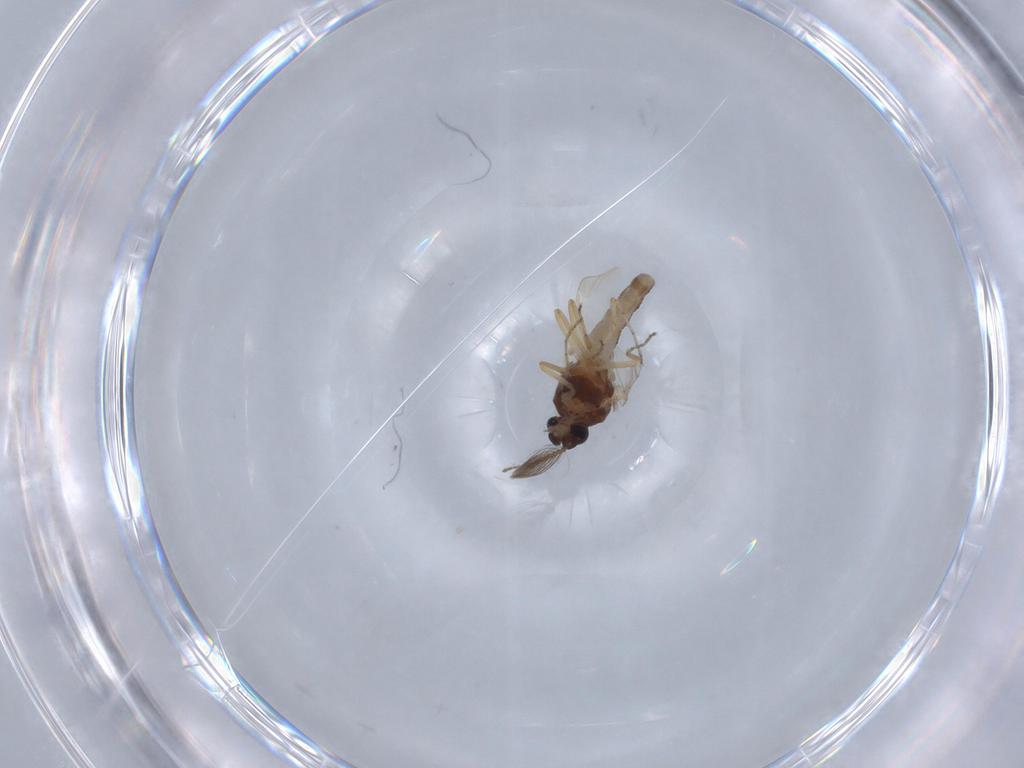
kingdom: Animalia
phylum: Arthropoda
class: Insecta
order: Diptera
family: Ceratopogonidae
